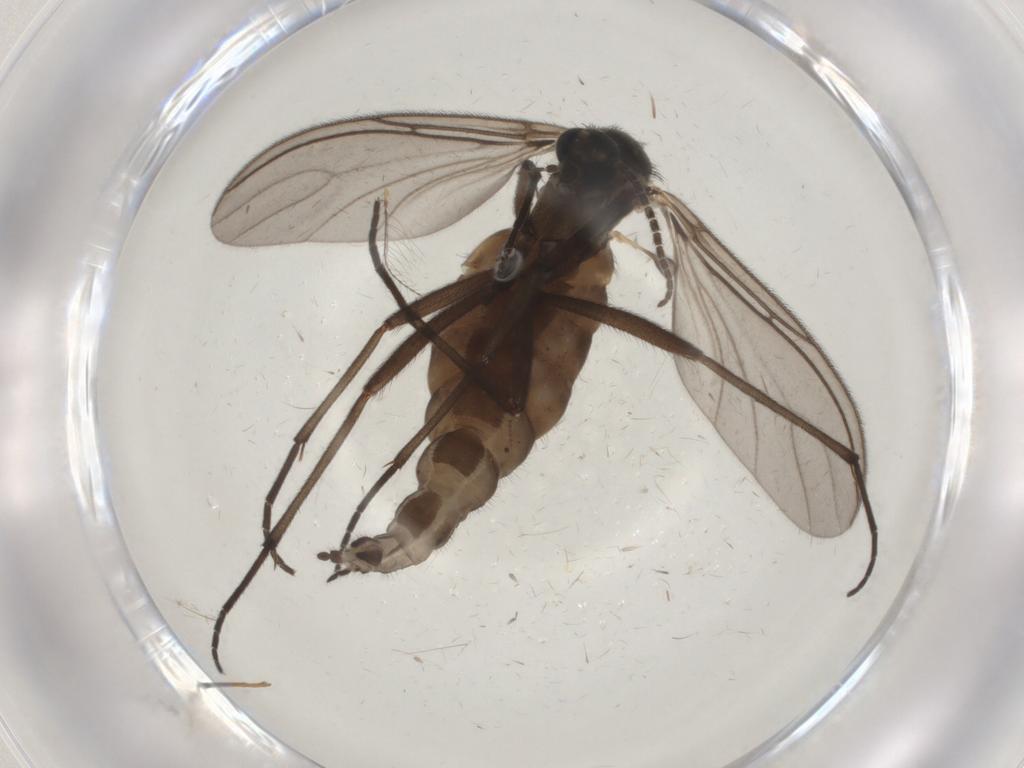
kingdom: Animalia
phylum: Arthropoda
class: Insecta
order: Diptera
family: Sciaridae
